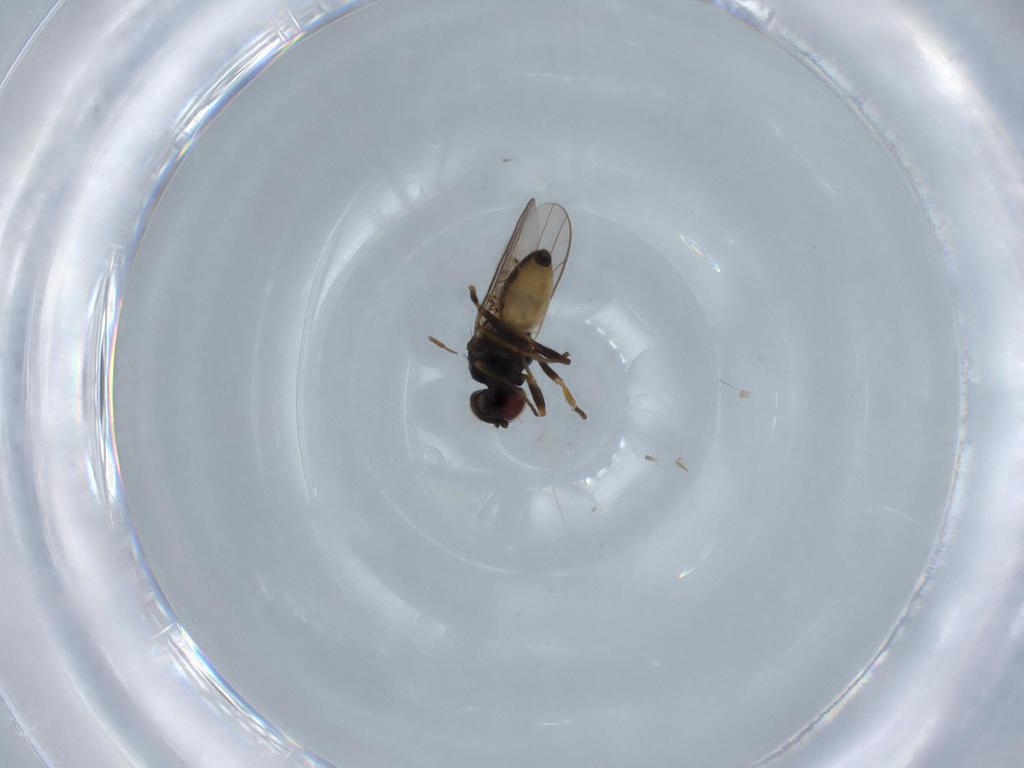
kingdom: Animalia
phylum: Arthropoda
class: Insecta
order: Diptera
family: Chloropidae
